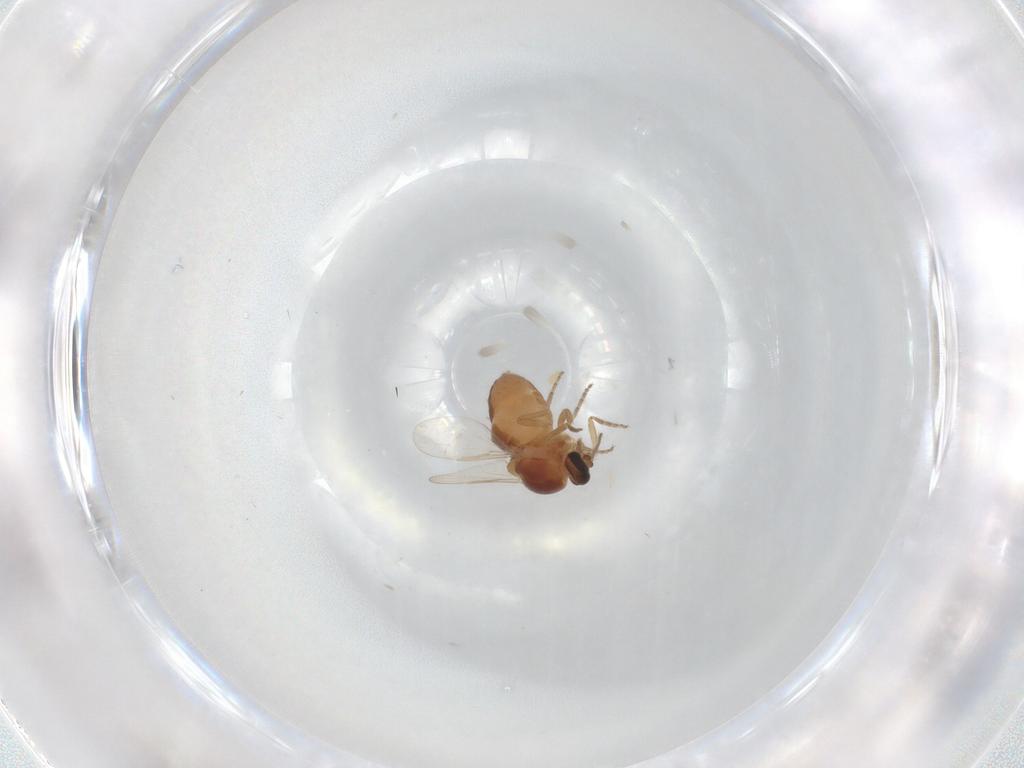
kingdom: Animalia
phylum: Arthropoda
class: Insecta
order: Diptera
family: Ceratopogonidae
